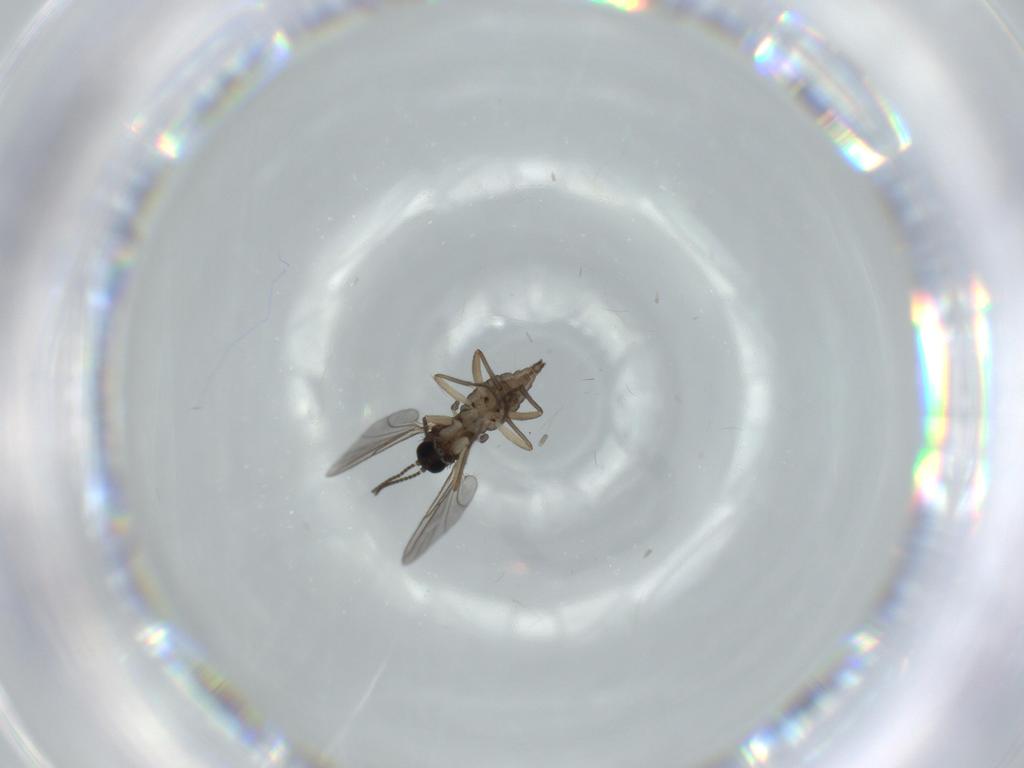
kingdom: Animalia
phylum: Arthropoda
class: Insecta
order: Diptera
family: Sciaridae
